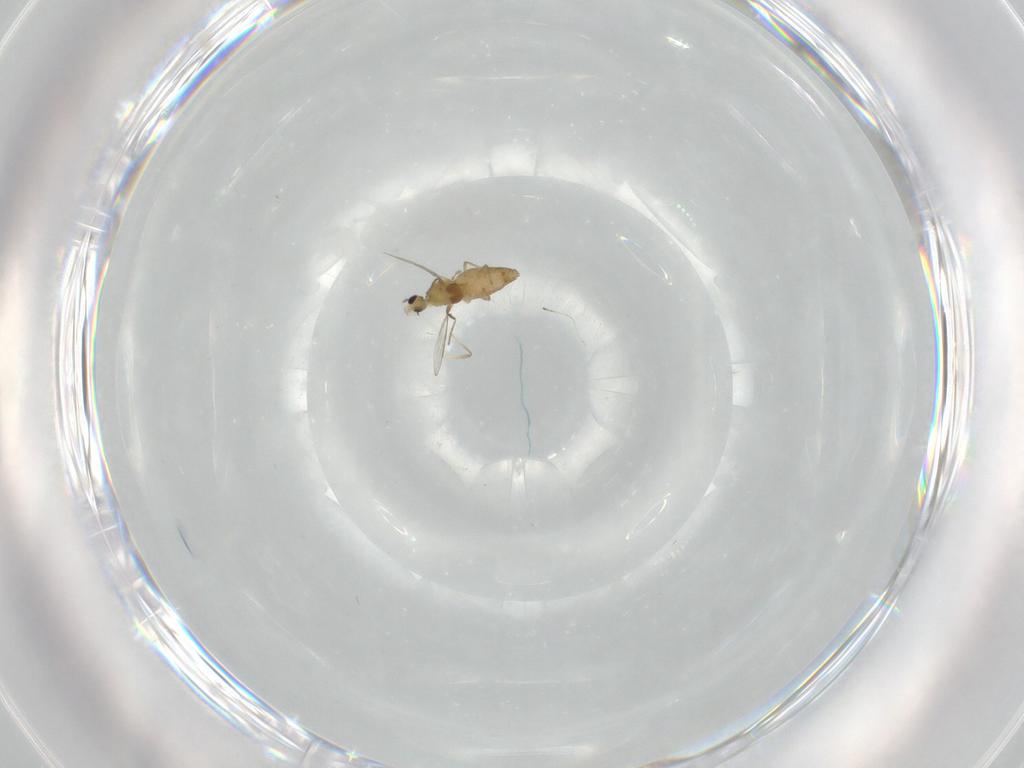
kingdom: Animalia
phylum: Arthropoda
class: Insecta
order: Diptera
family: Chironomidae
